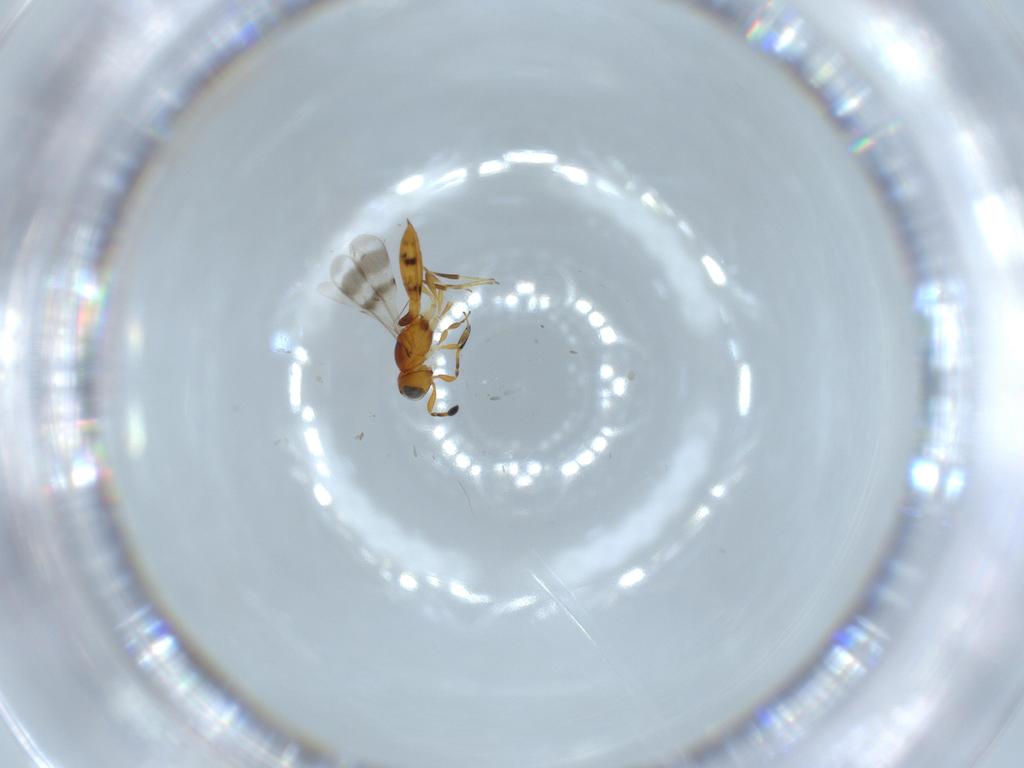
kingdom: Animalia
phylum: Arthropoda
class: Insecta
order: Hymenoptera
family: Scelionidae
